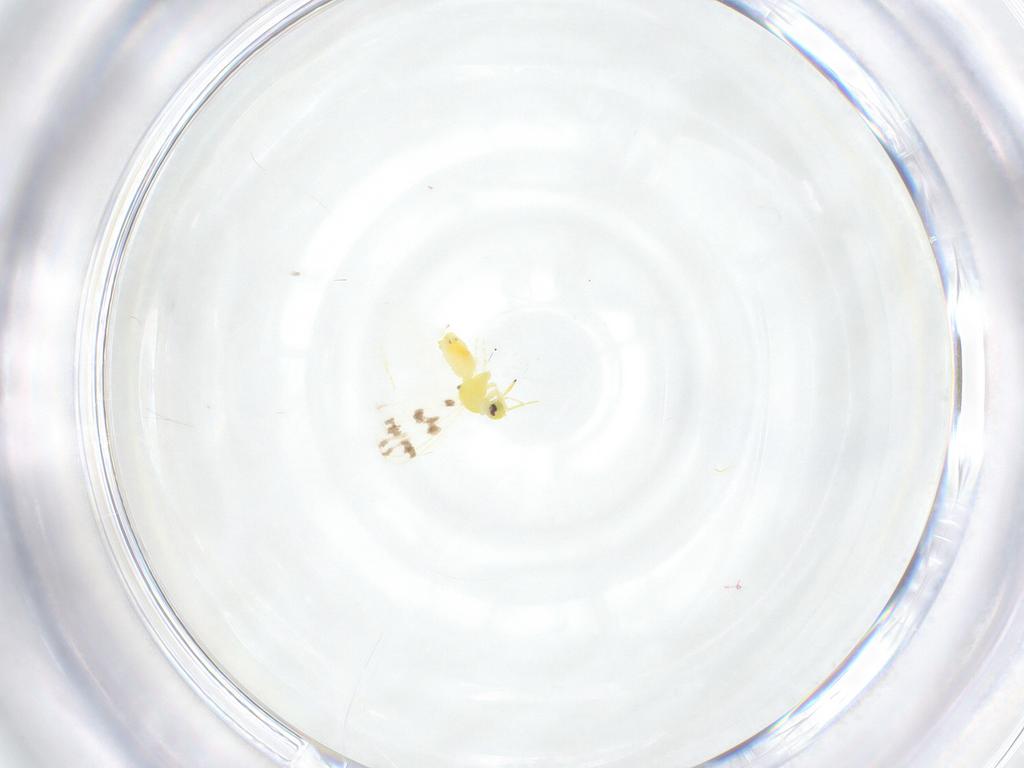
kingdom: Animalia
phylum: Arthropoda
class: Insecta
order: Hemiptera
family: Aleyrodidae
